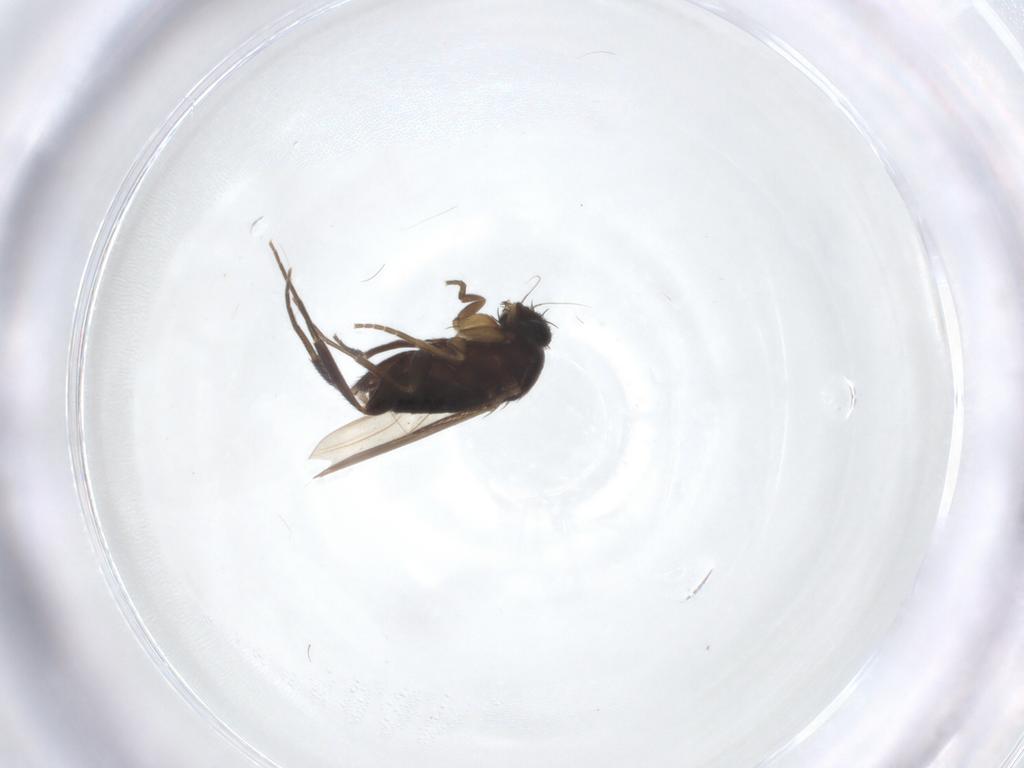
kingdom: Animalia
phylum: Arthropoda
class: Insecta
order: Diptera
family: Phoridae
